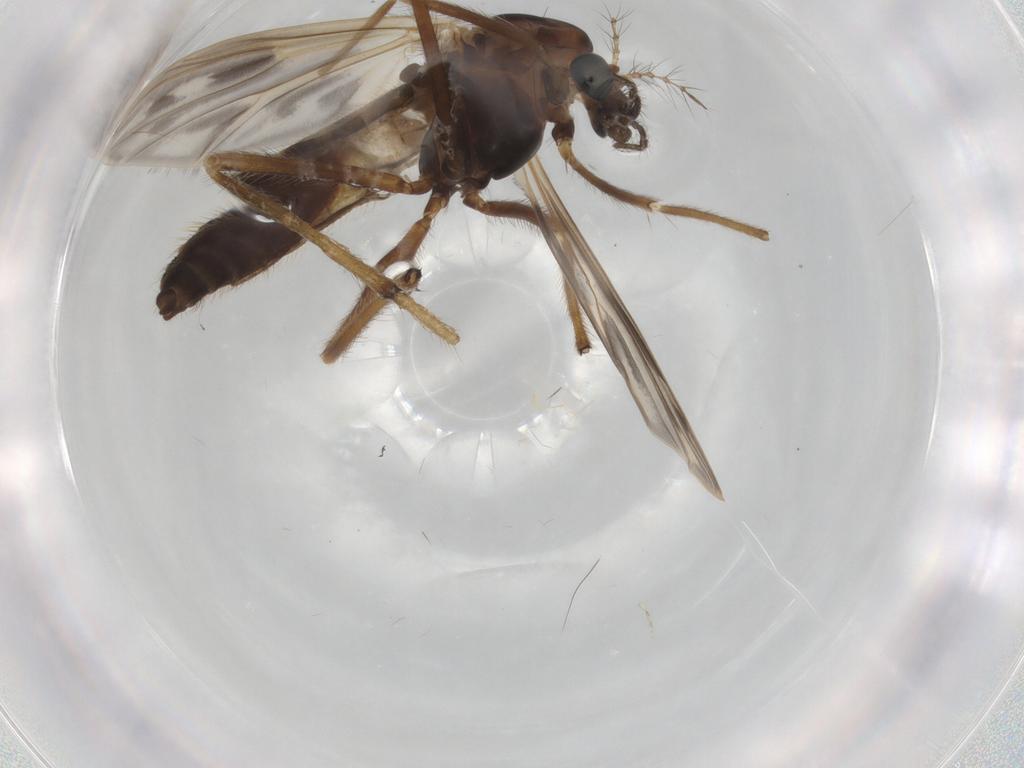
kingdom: Animalia
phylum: Arthropoda
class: Insecta
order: Diptera
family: Chironomidae
